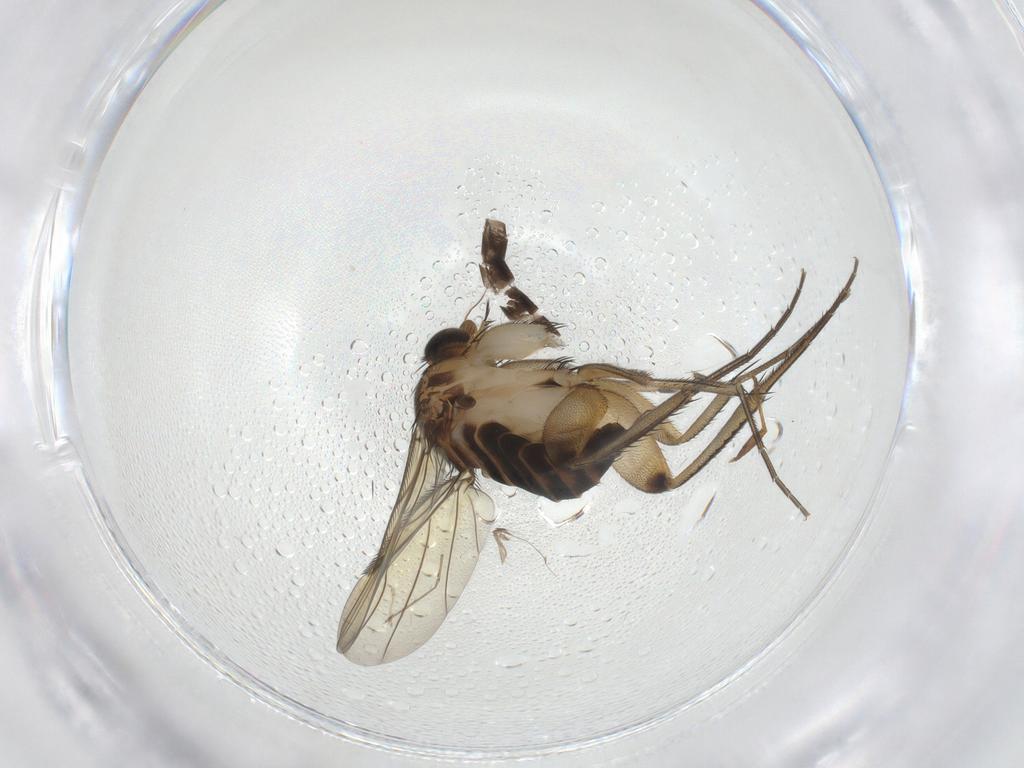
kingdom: Animalia
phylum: Arthropoda
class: Insecta
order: Diptera
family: Phoridae
